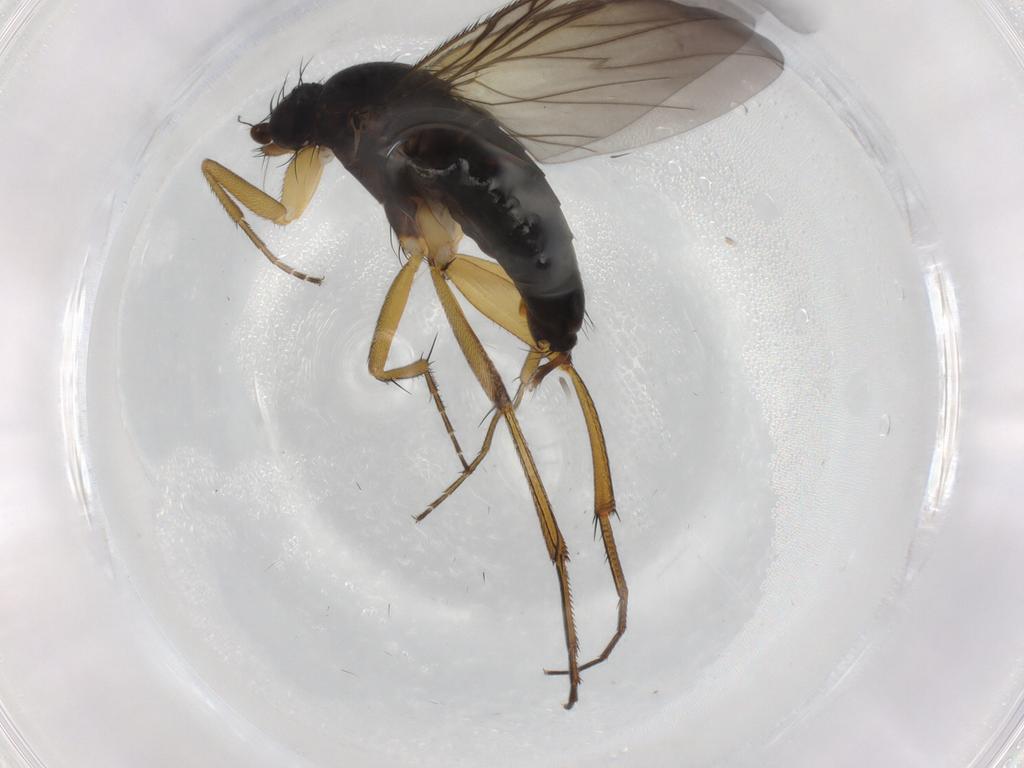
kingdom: Animalia
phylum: Arthropoda
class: Insecta
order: Diptera
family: Phoridae
